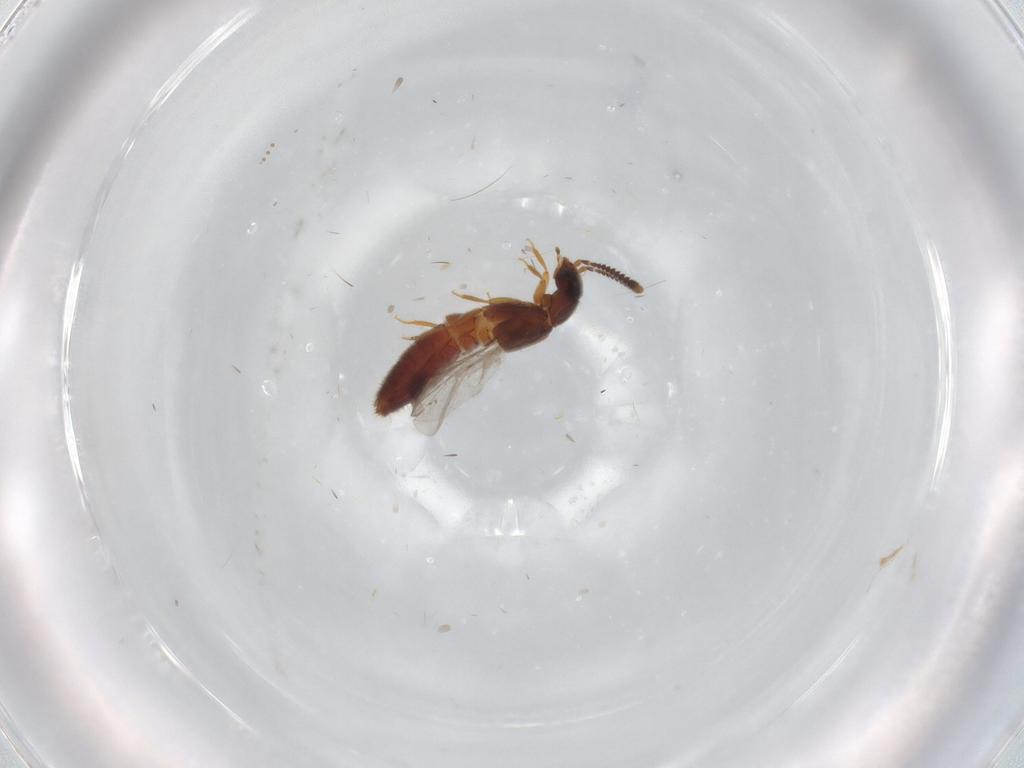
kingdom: Animalia
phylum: Arthropoda
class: Insecta
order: Coleoptera
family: Staphylinidae
